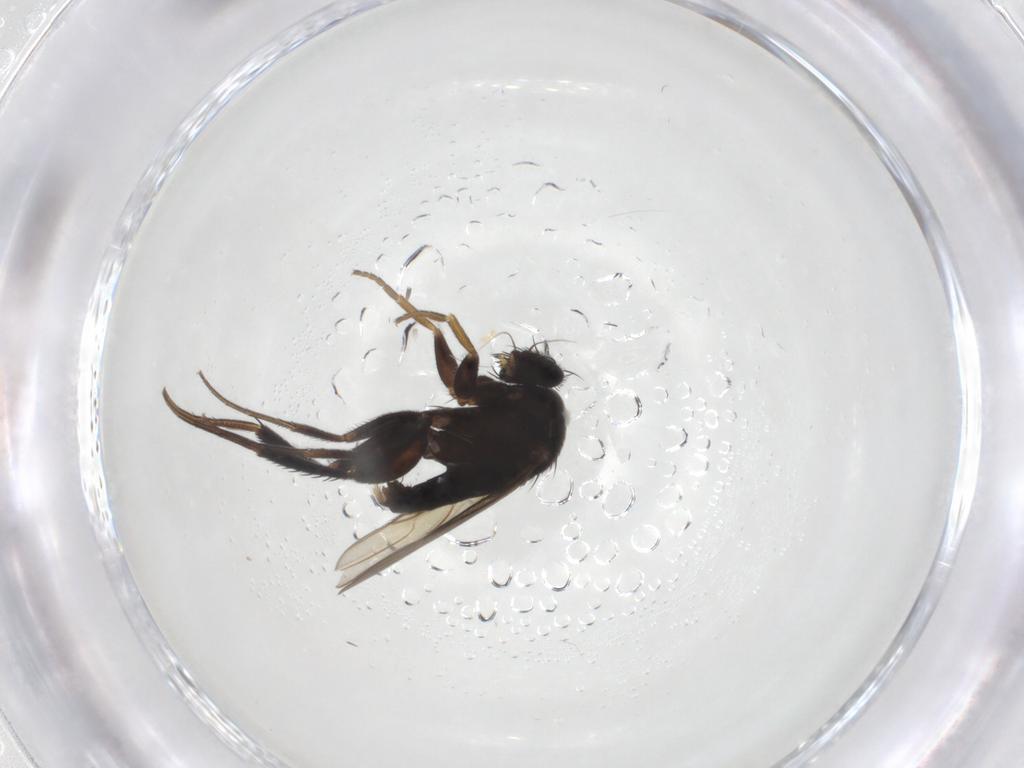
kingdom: Animalia
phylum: Arthropoda
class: Insecta
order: Diptera
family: Phoridae
